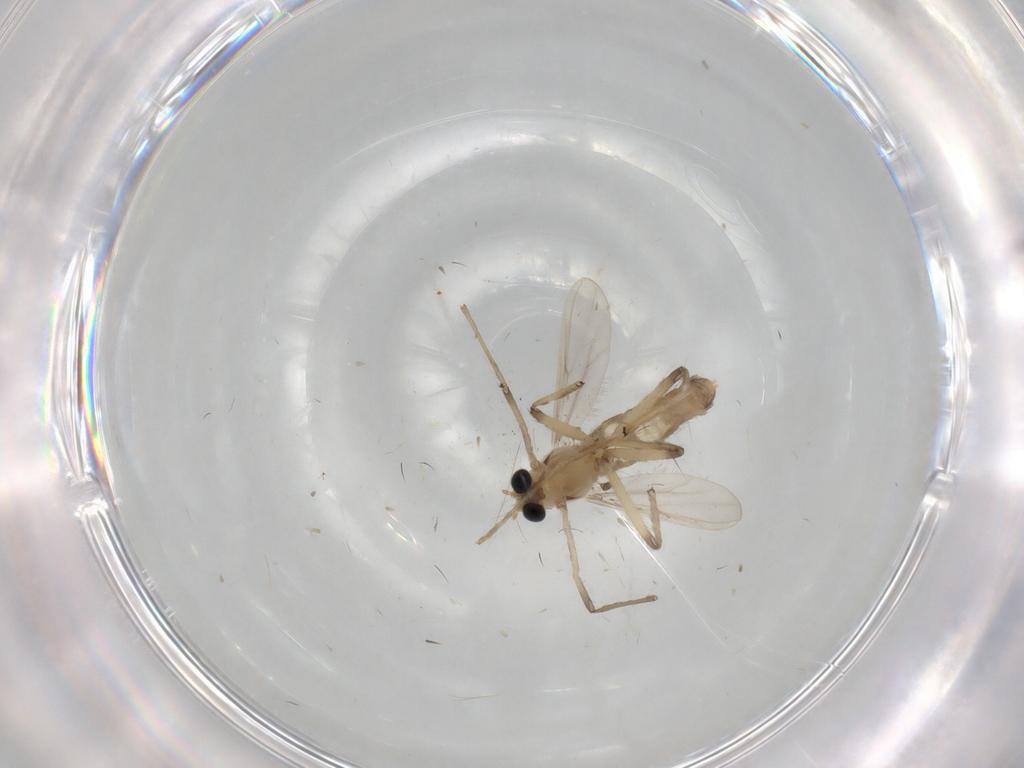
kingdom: Animalia
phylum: Arthropoda
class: Insecta
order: Diptera
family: Chironomidae
